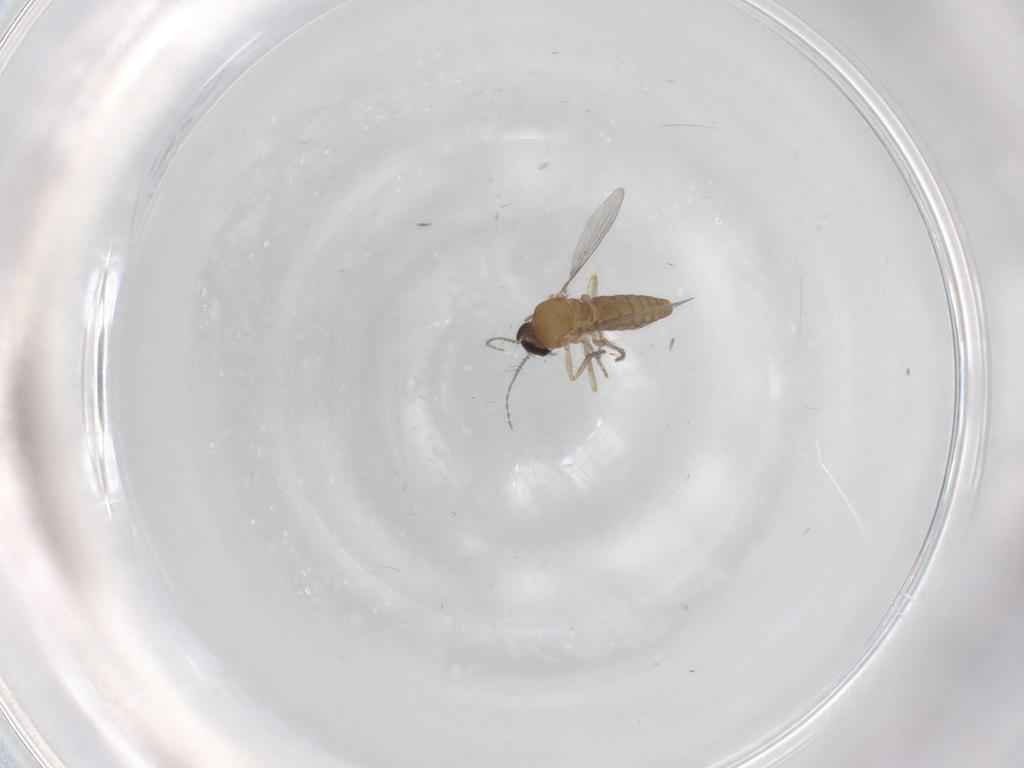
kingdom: Animalia
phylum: Arthropoda
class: Insecta
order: Diptera
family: Ceratopogonidae
